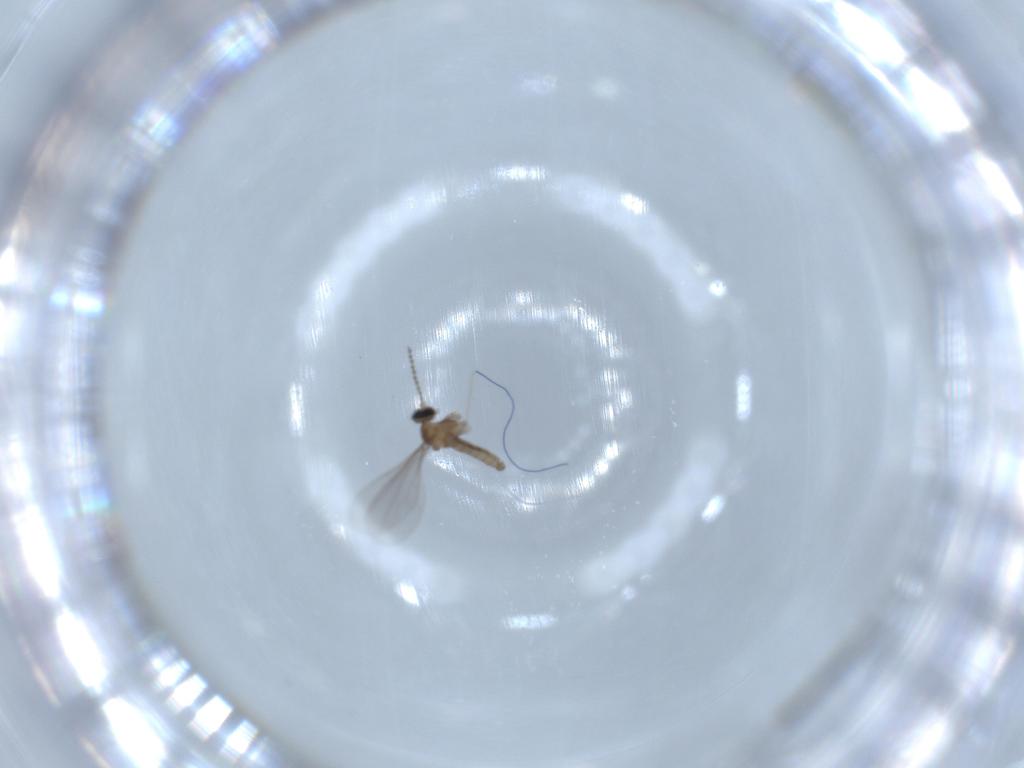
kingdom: Animalia
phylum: Arthropoda
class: Insecta
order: Diptera
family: Cecidomyiidae
